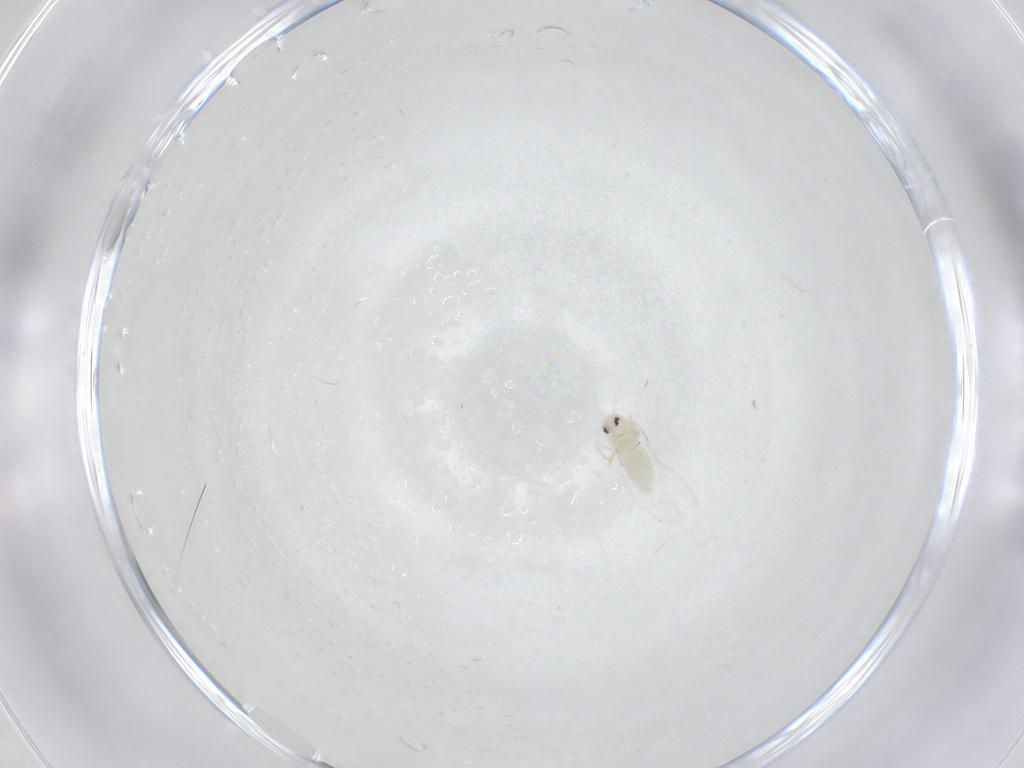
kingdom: Animalia
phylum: Arthropoda
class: Insecta
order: Hemiptera
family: Aleyrodidae
